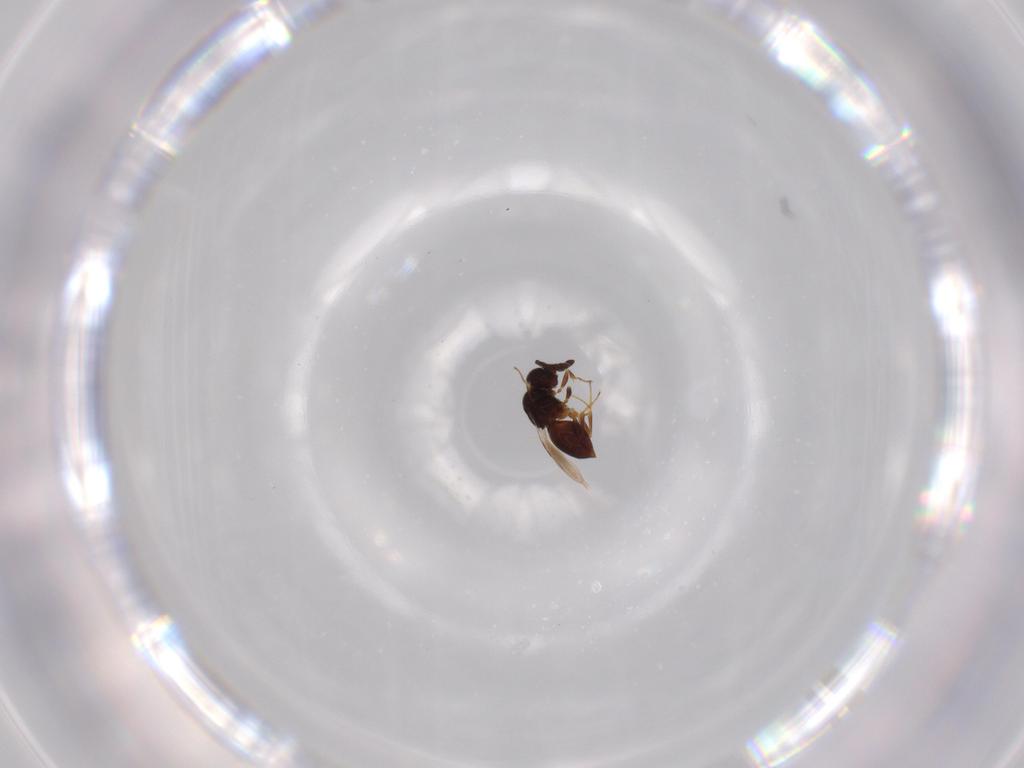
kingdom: Animalia
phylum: Arthropoda
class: Insecta
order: Hymenoptera
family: Ceraphronidae
